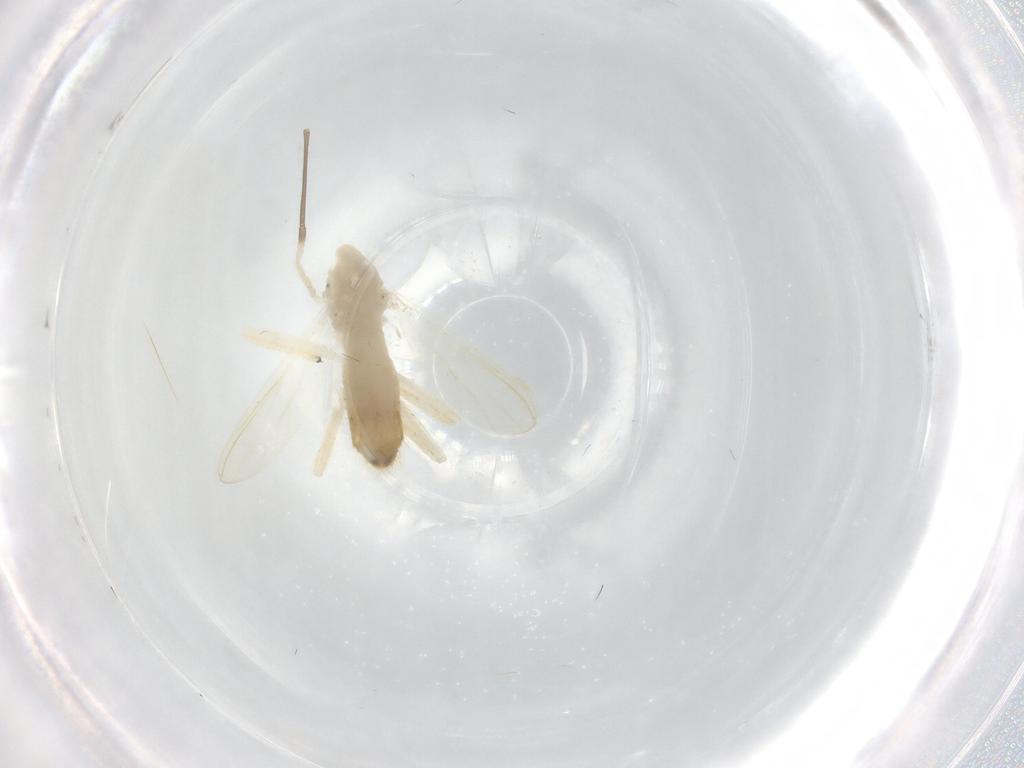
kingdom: Animalia
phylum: Arthropoda
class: Insecta
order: Diptera
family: Chironomidae
